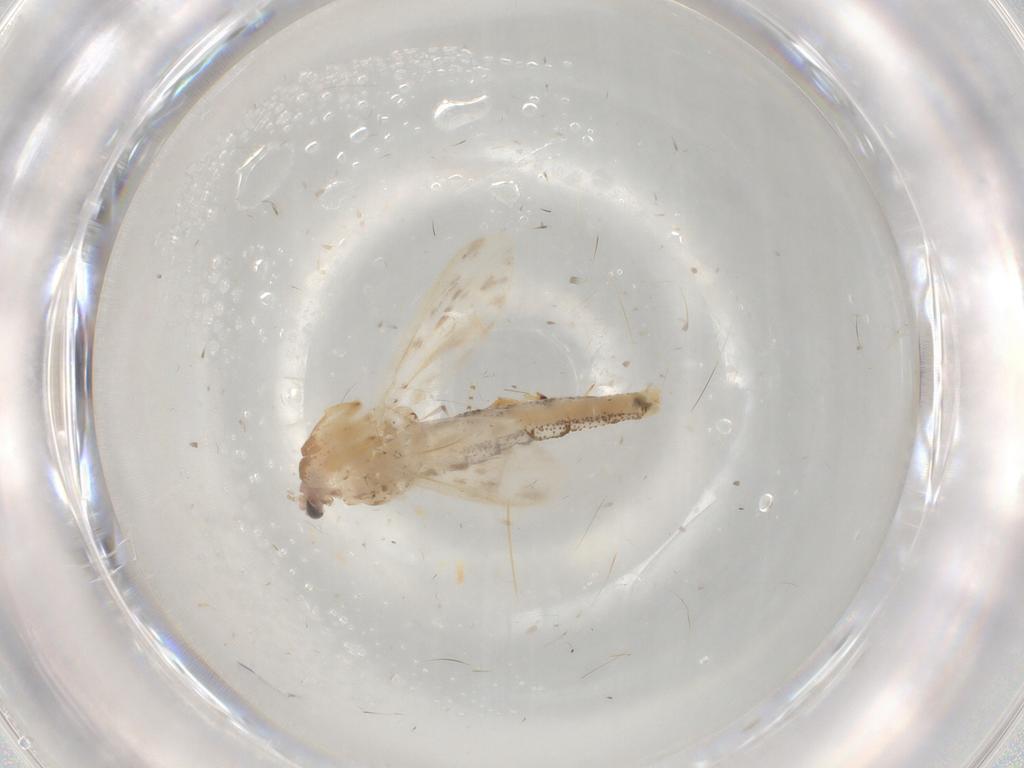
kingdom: Animalia
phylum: Arthropoda
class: Insecta
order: Diptera
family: Chaoboridae
